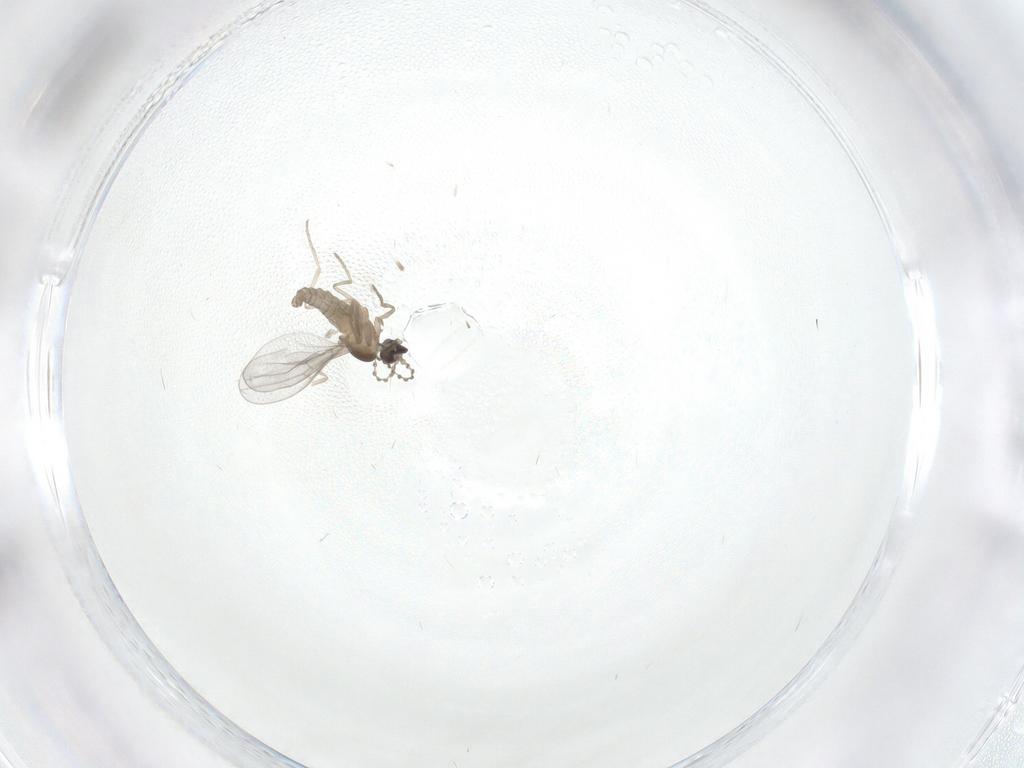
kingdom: Animalia
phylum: Arthropoda
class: Insecta
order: Diptera
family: Cecidomyiidae
